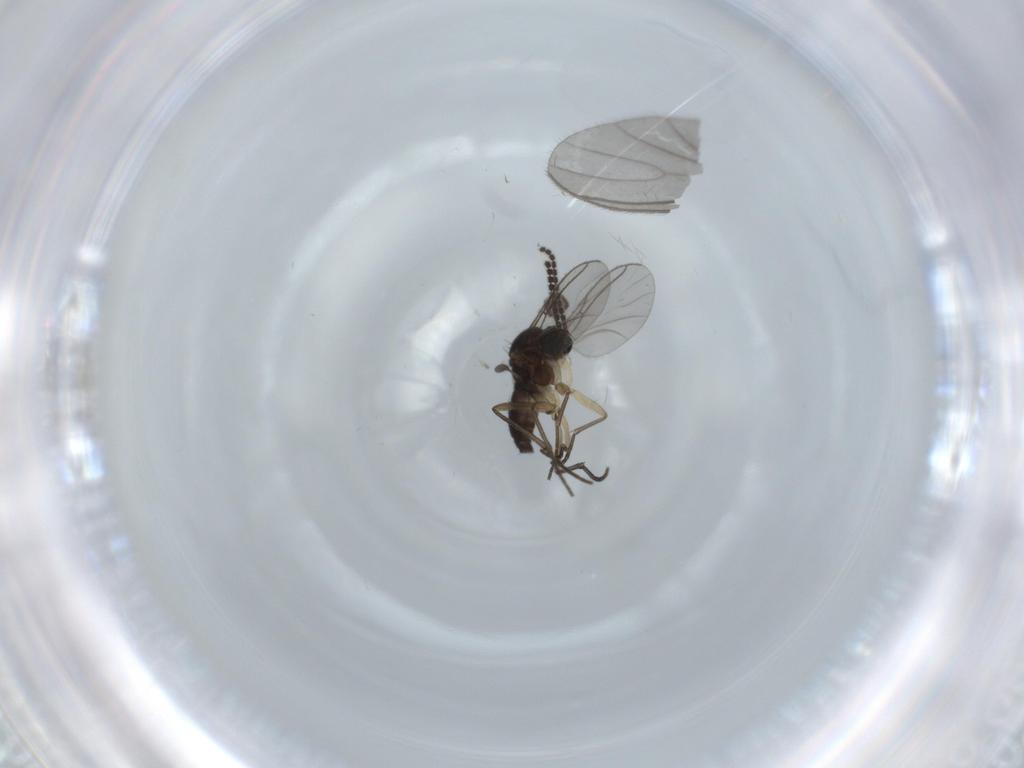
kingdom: Animalia
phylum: Arthropoda
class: Insecta
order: Diptera
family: Sciaridae
